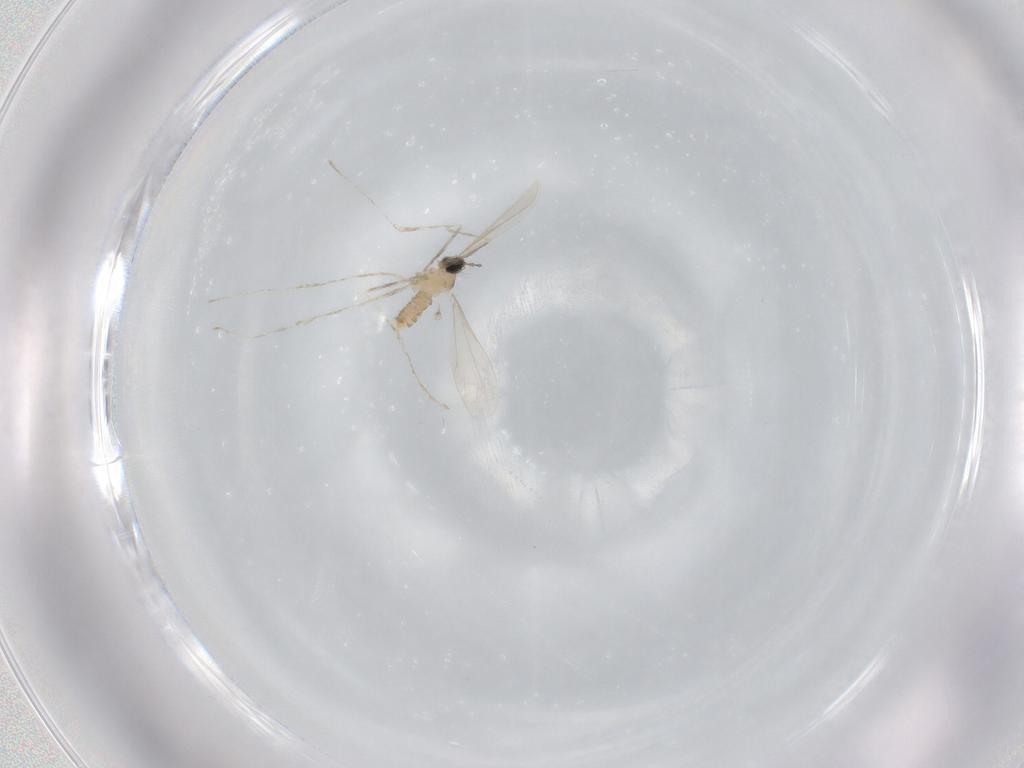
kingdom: Animalia
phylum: Arthropoda
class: Insecta
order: Diptera
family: Cecidomyiidae
